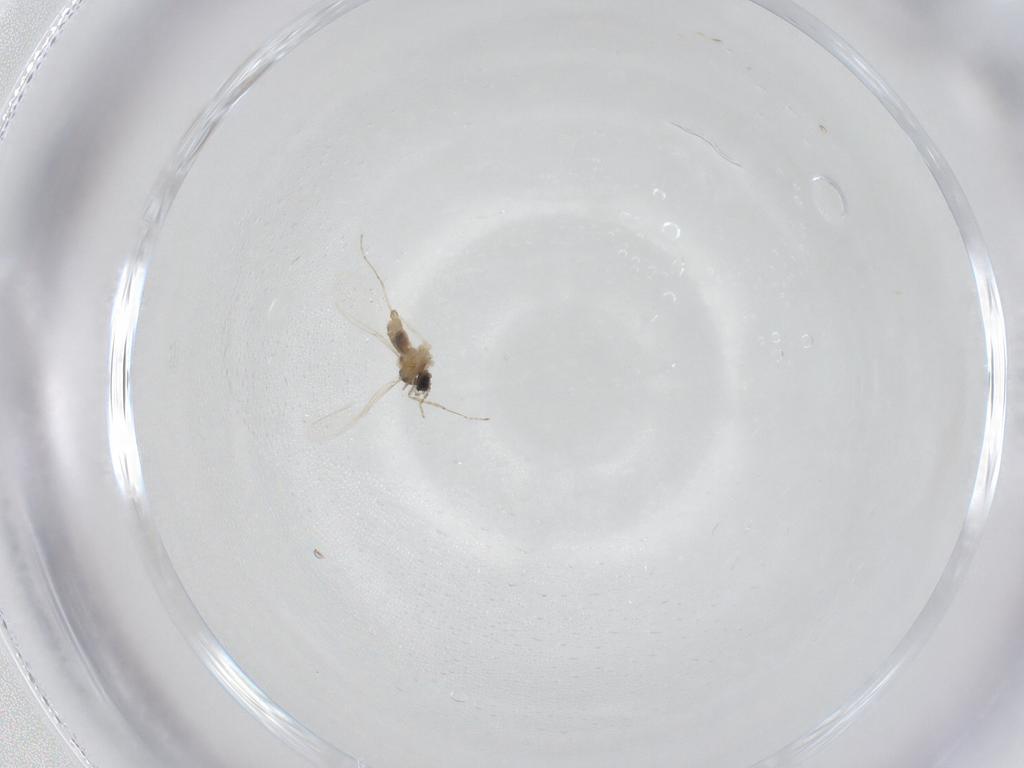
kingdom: Animalia
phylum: Arthropoda
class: Insecta
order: Diptera
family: Cecidomyiidae
